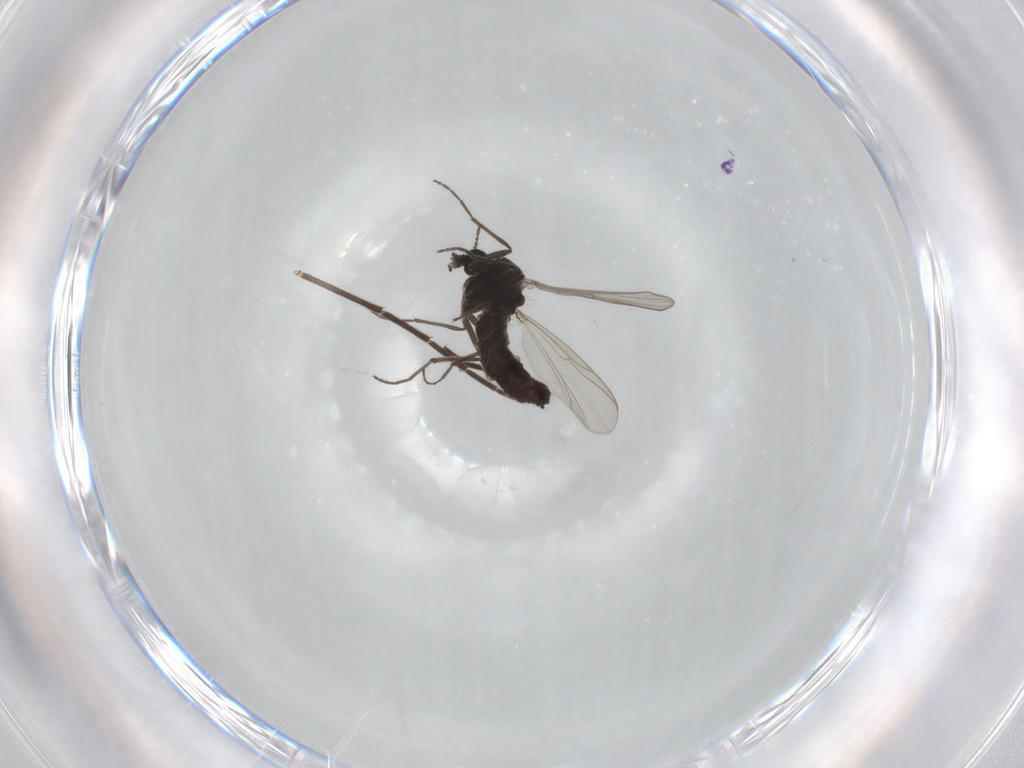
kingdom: Animalia
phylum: Arthropoda
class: Insecta
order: Diptera
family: Chironomidae
